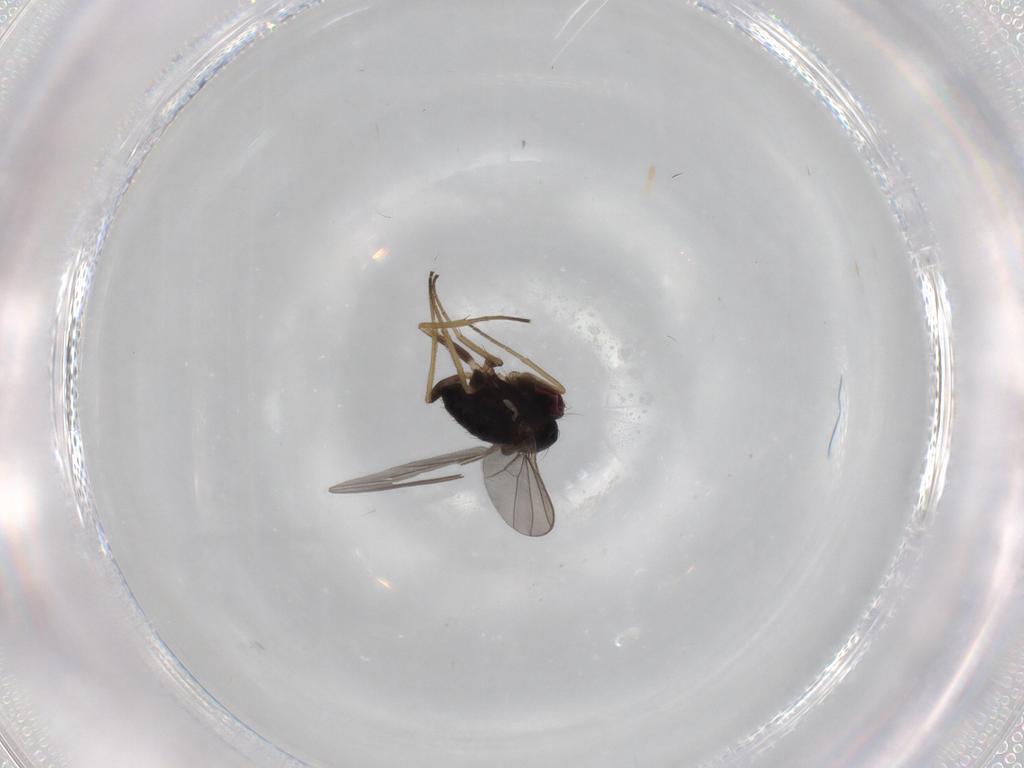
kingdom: Animalia
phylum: Arthropoda
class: Insecta
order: Diptera
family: Dolichopodidae
